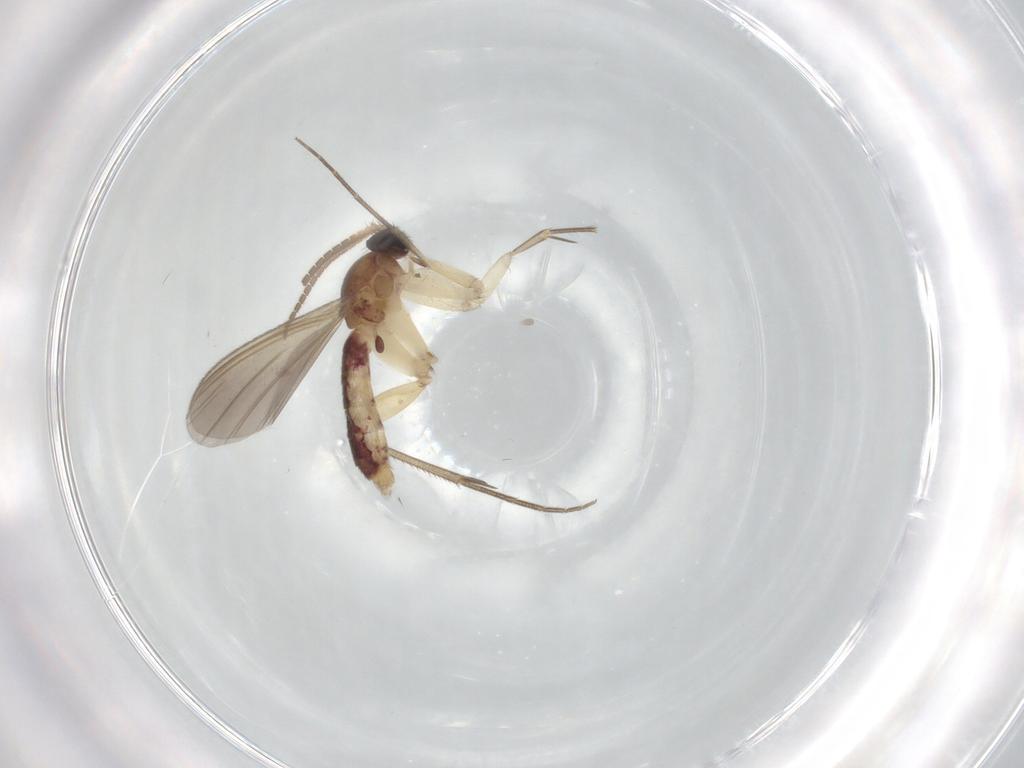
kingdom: Animalia
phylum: Arthropoda
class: Insecta
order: Diptera
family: Mycetophilidae
